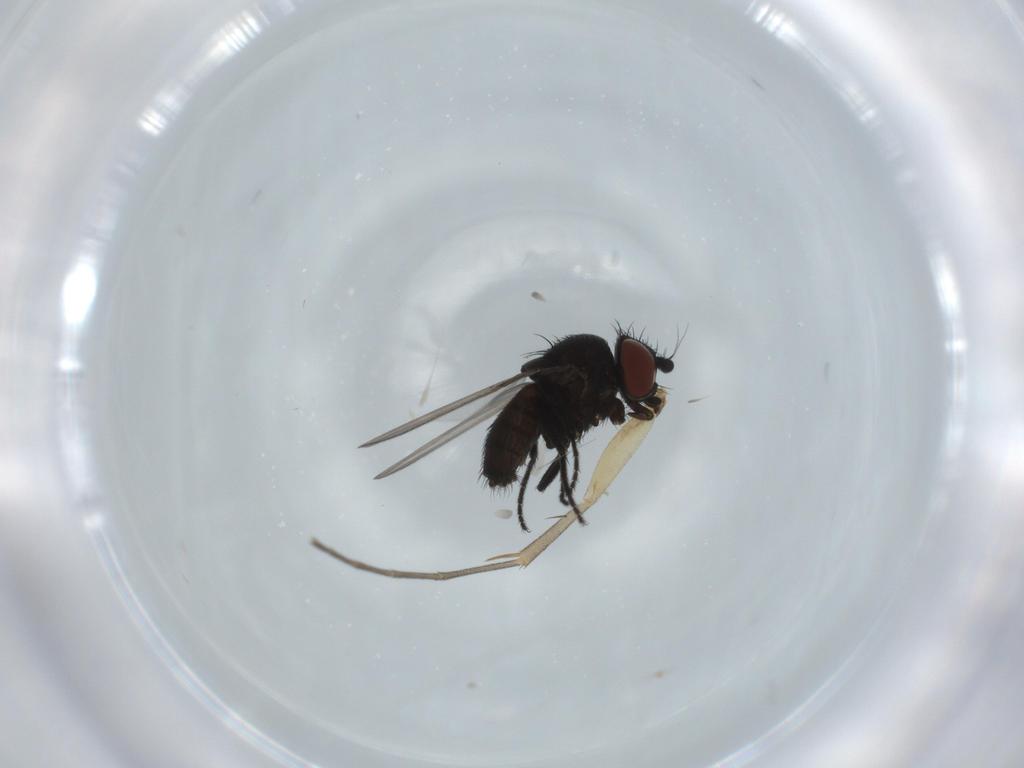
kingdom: Animalia
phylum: Arthropoda
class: Insecta
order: Diptera
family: Milichiidae
